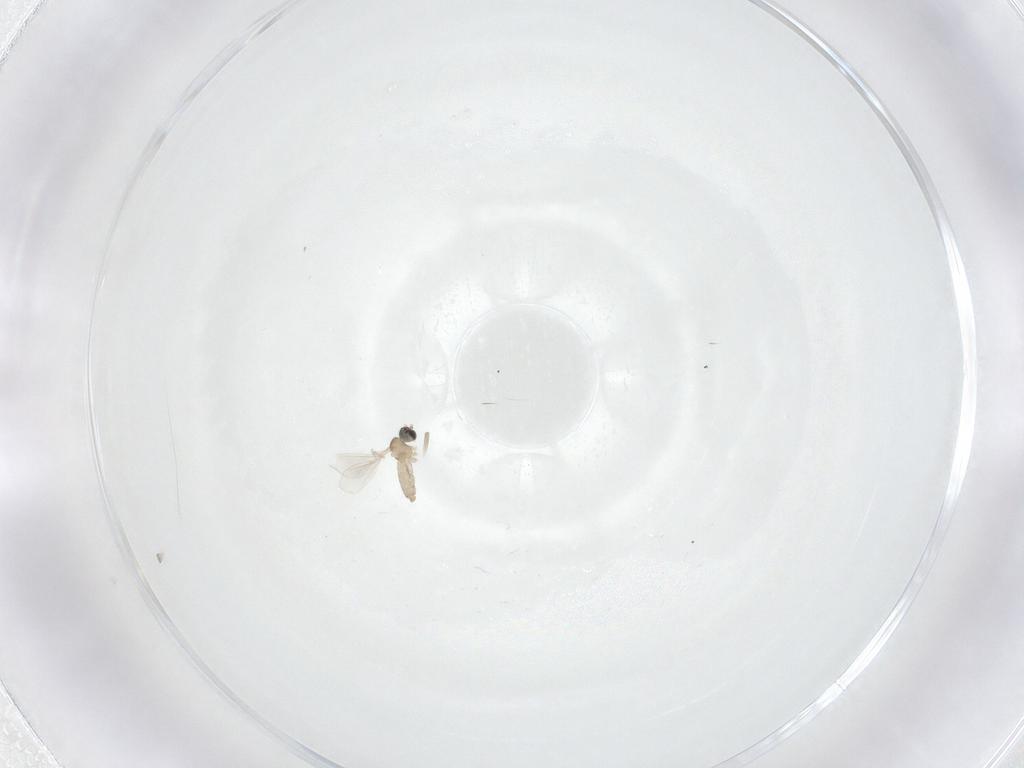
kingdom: Animalia
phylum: Arthropoda
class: Insecta
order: Diptera
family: Cecidomyiidae
